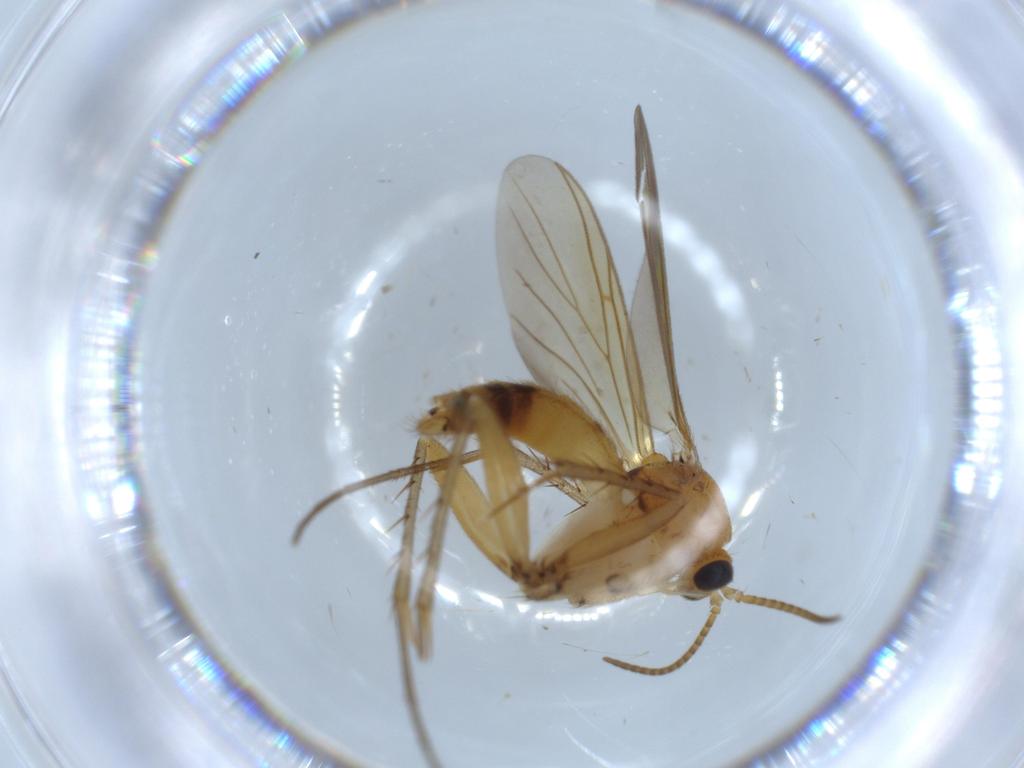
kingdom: Animalia
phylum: Arthropoda
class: Insecta
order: Diptera
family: Mycetophilidae
